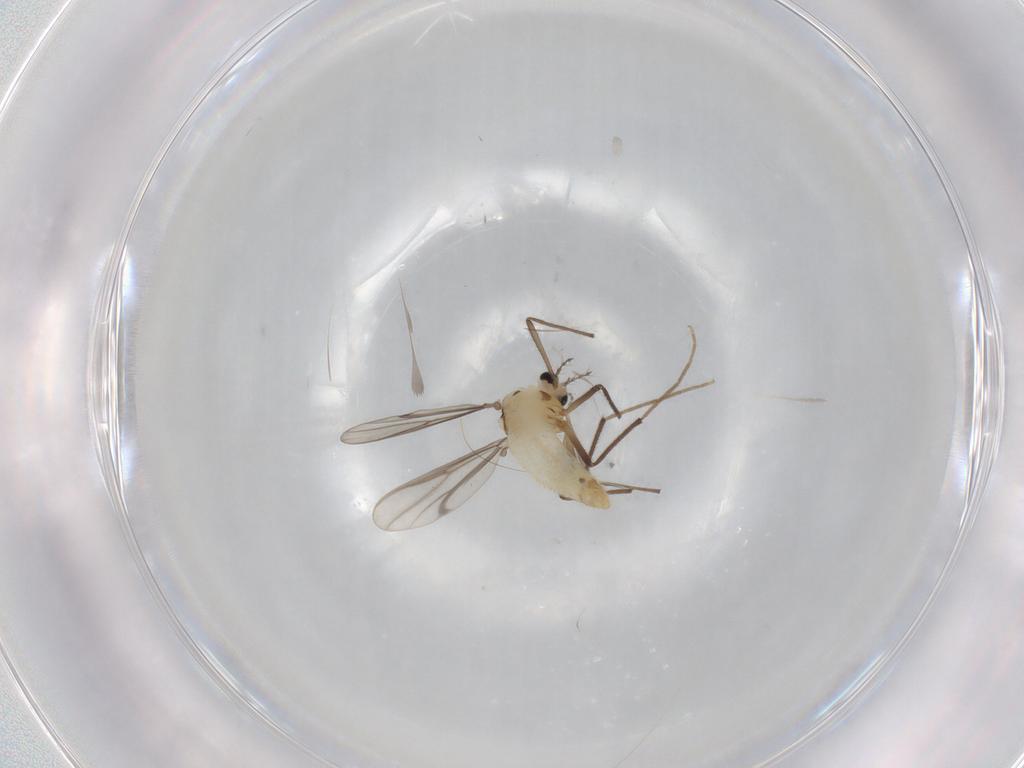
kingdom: Animalia
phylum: Arthropoda
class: Insecta
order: Diptera
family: Chironomidae
